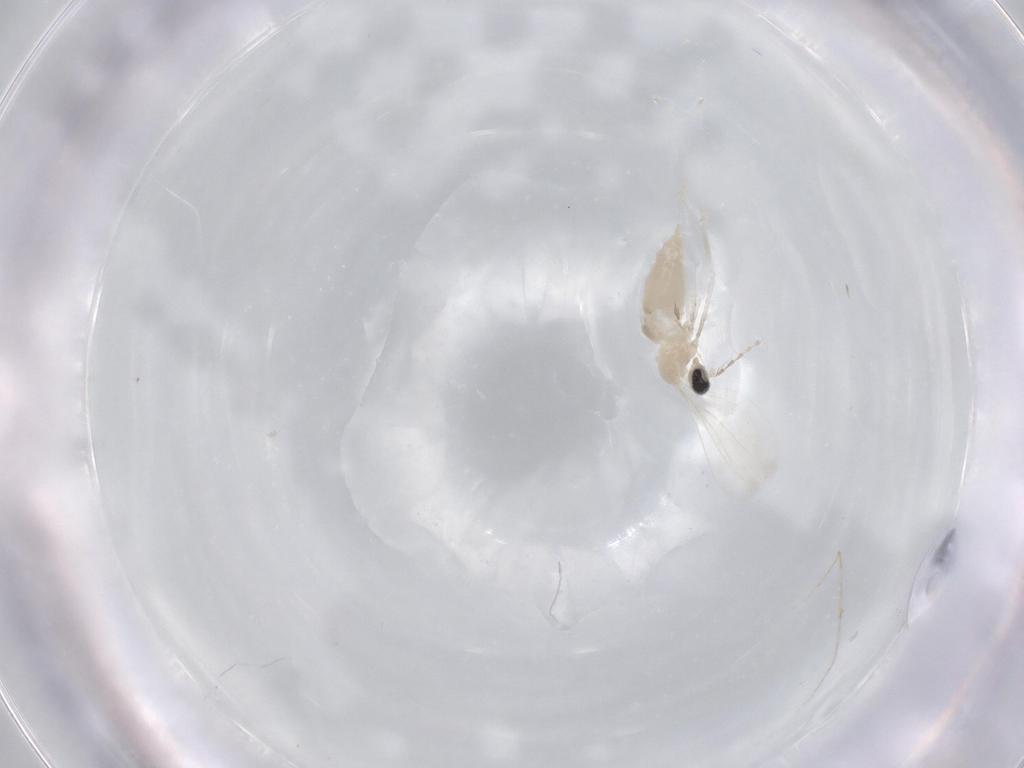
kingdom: Animalia
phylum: Arthropoda
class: Insecta
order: Diptera
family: Cecidomyiidae
